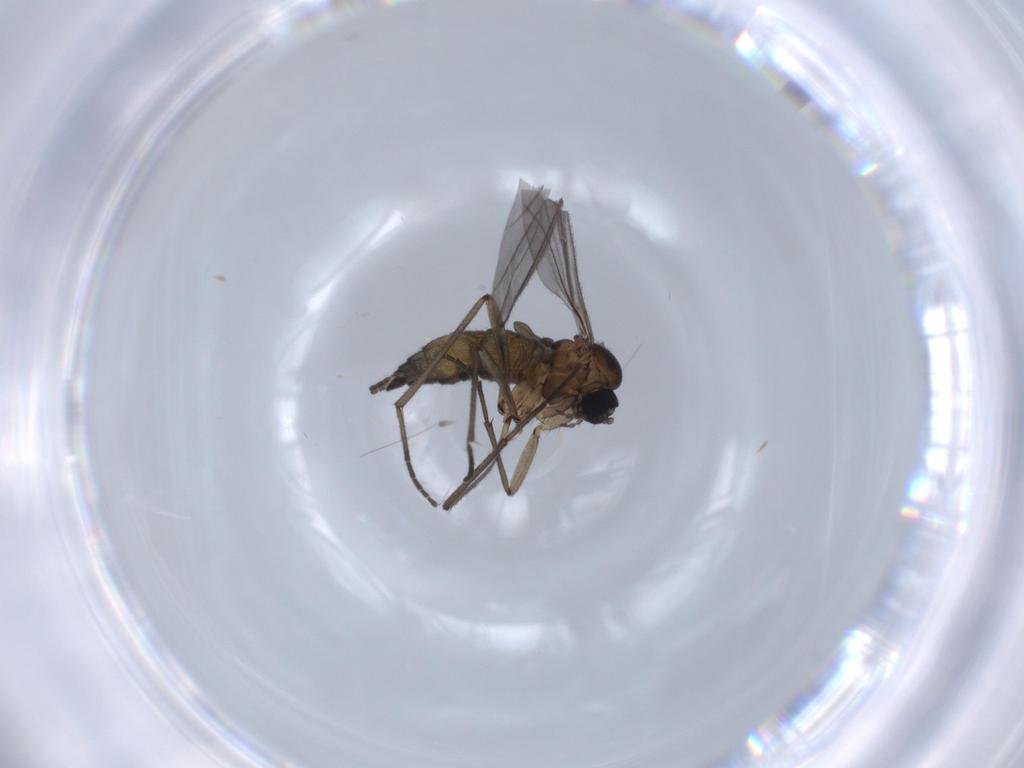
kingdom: Animalia
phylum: Arthropoda
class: Insecta
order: Diptera
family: Sciaridae
